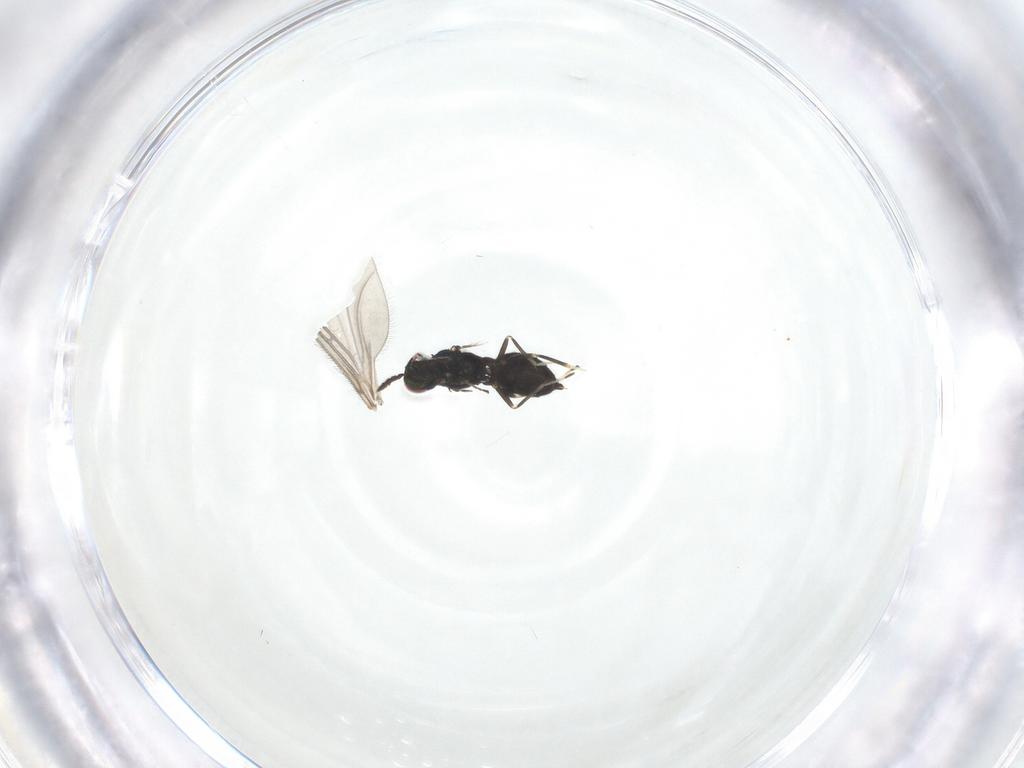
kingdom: Animalia
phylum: Arthropoda
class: Insecta
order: Hymenoptera
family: Eulophidae
